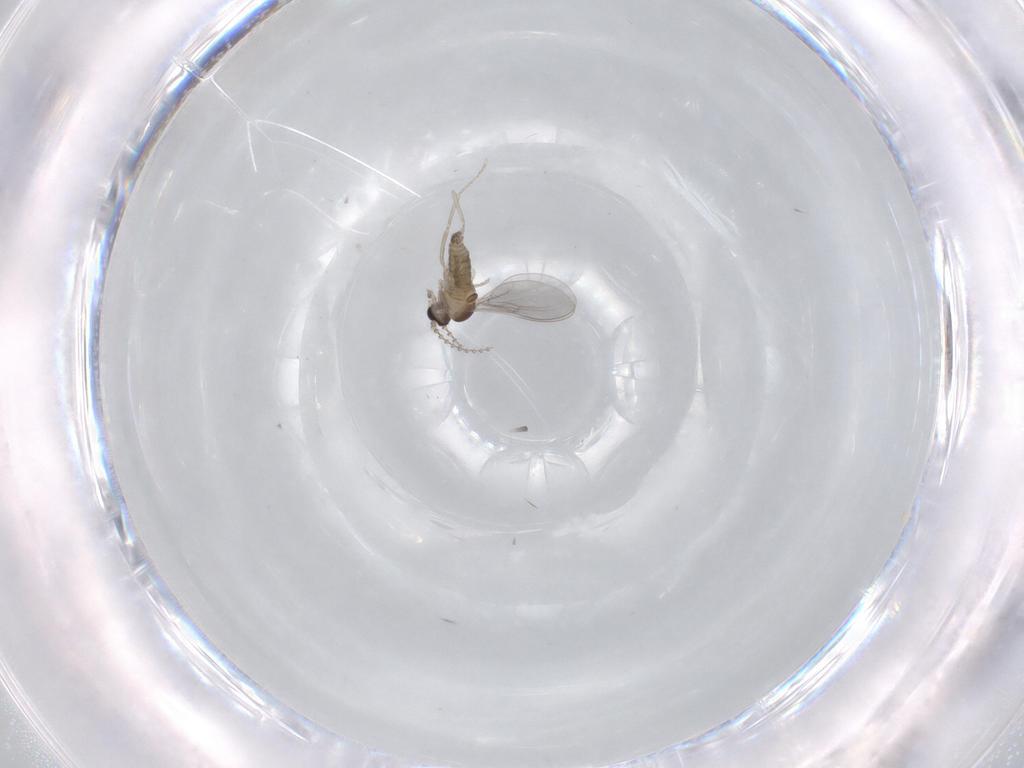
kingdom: Animalia
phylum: Arthropoda
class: Insecta
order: Diptera
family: Cecidomyiidae
